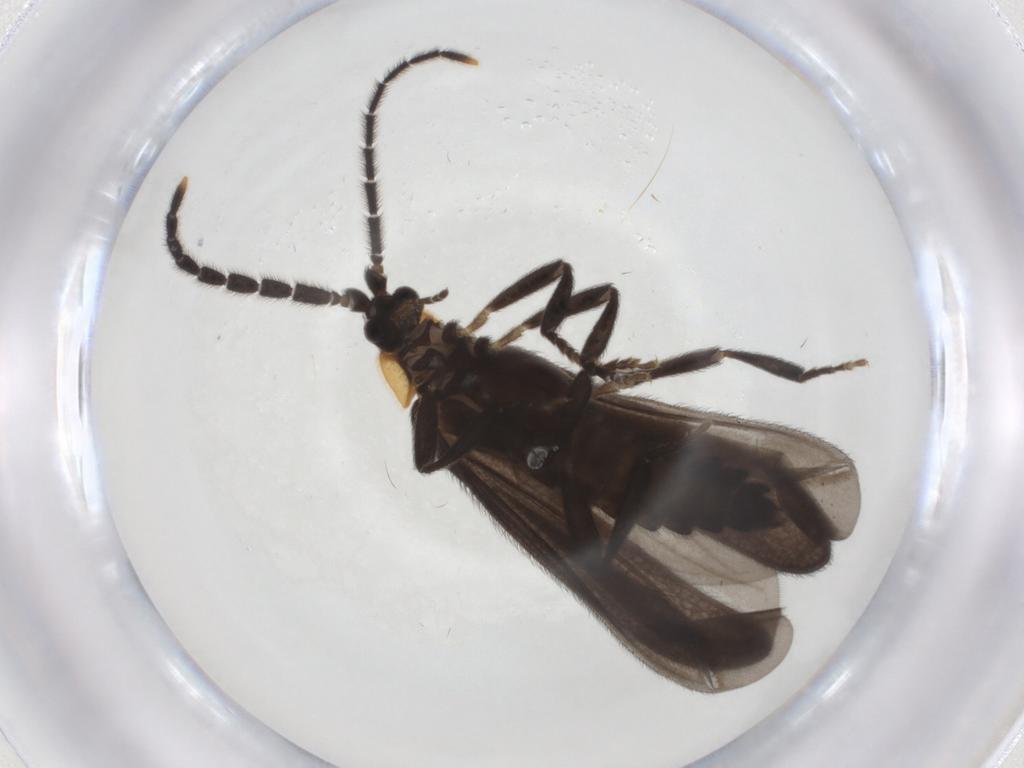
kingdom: Animalia
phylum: Arthropoda
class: Insecta
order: Coleoptera
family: Lycidae
